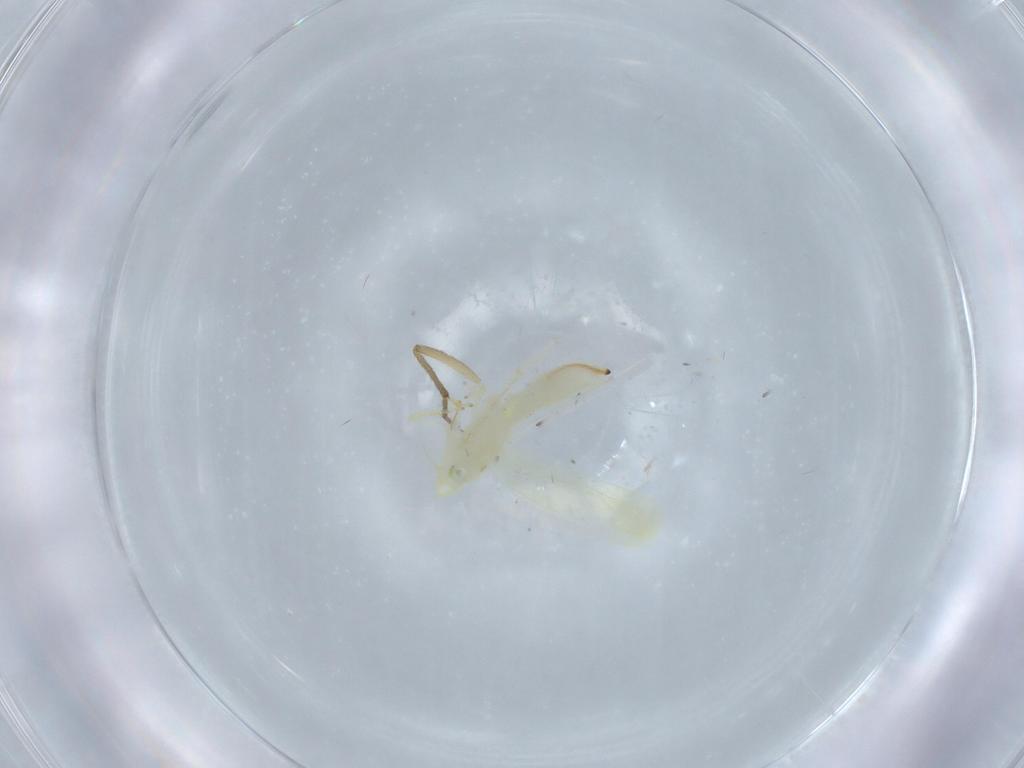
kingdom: Animalia
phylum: Arthropoda
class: Insecta
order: Hemiptera
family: Cicadellidae
